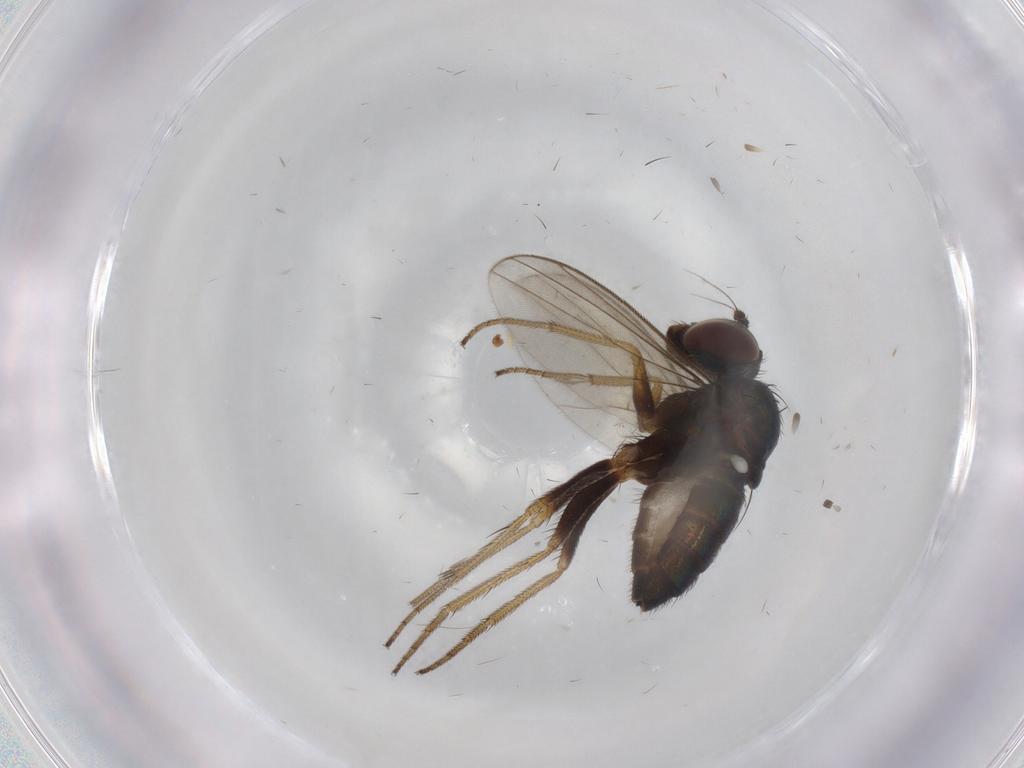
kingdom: Animalia
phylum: Arthropoda
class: Insecta
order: Diptera
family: Limoniidae
